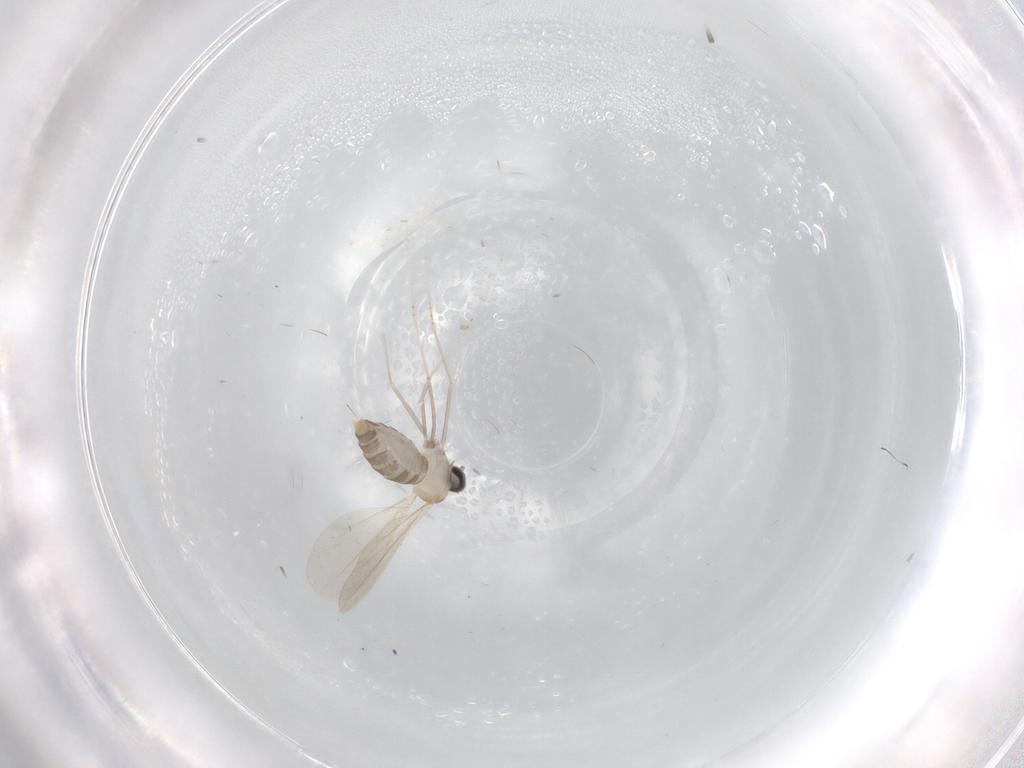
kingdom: Animalia
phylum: Arthropoda
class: Insecta
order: Diptera
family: Cecidomyiidae
